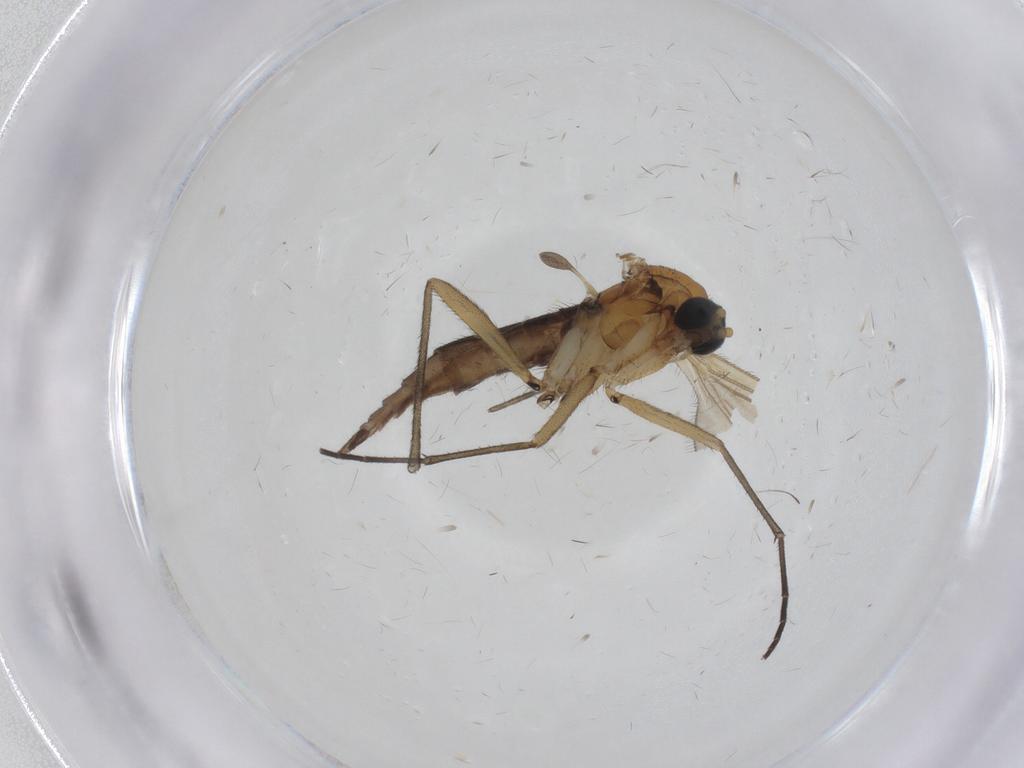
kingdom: Animalia
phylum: Arthropoda
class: Insecta
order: Diptera
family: Sciaridae
